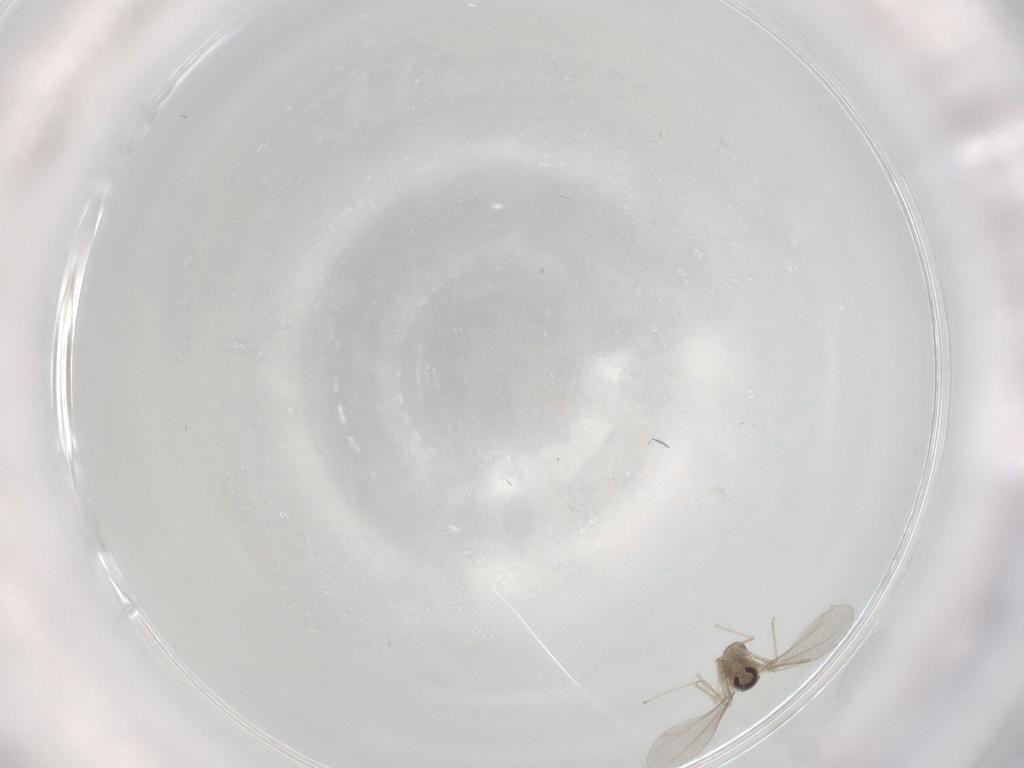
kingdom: Animalia
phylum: Arthropoda
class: Insecta
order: Diptera
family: Cecidomyiidae
